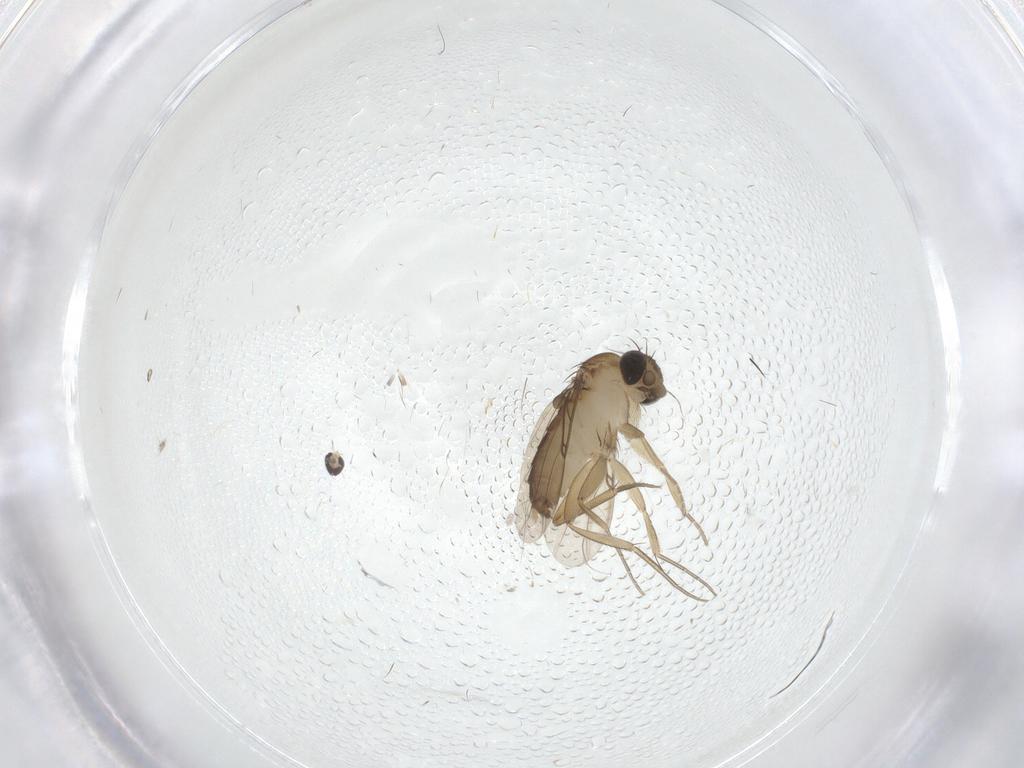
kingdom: Animalia
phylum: Arthropoda
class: Insecta
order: Diptera
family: Phoridae
